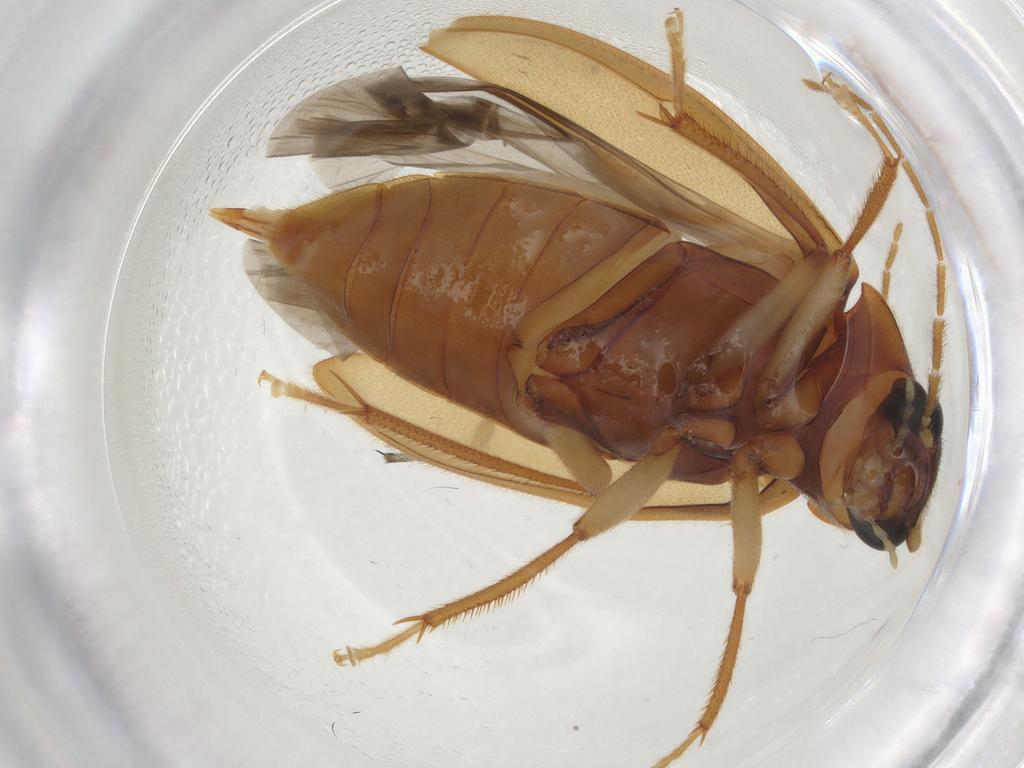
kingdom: Animalia
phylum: Arthropoda
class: Insecta
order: Coleoptera
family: Ptilodactylidae
